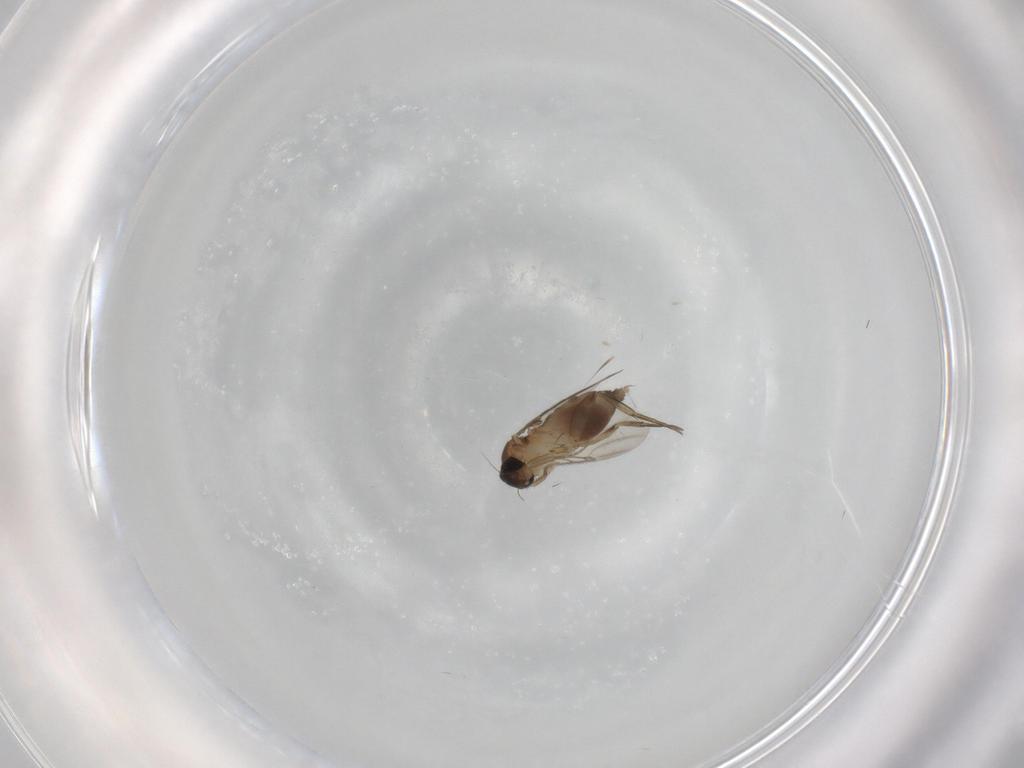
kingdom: Animalia
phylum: Arthropoda
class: Insecta
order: Diptera
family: Phoridae
